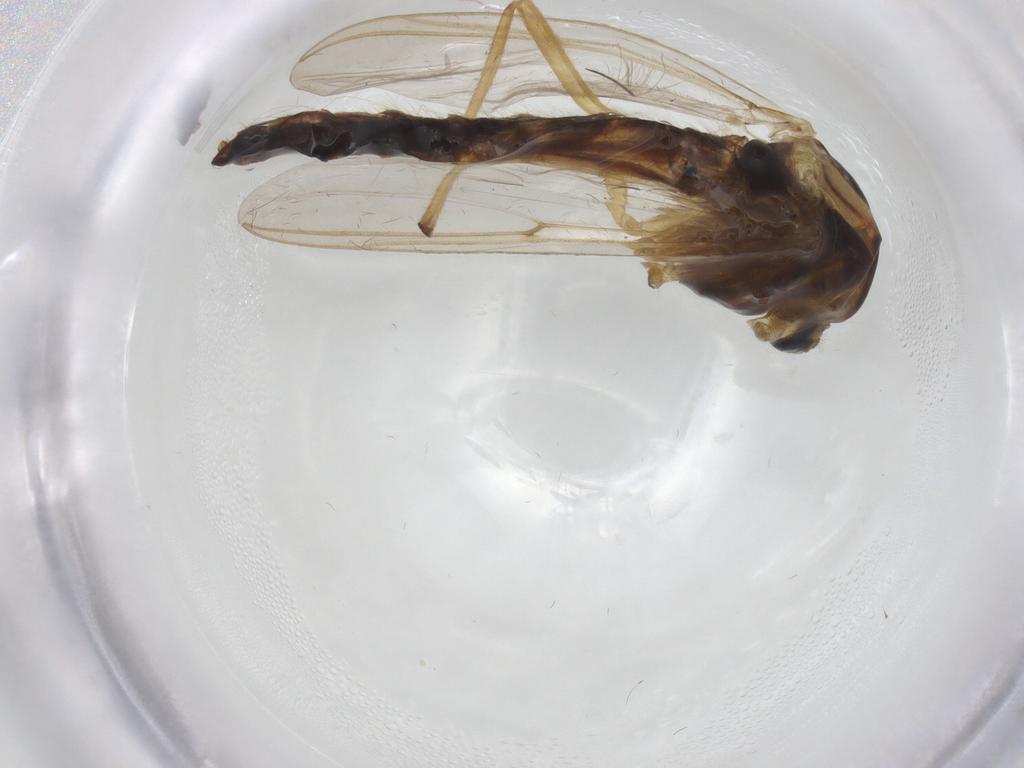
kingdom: Animalia
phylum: Arthropoda
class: Insecta
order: Diptera
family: Chironomidae
